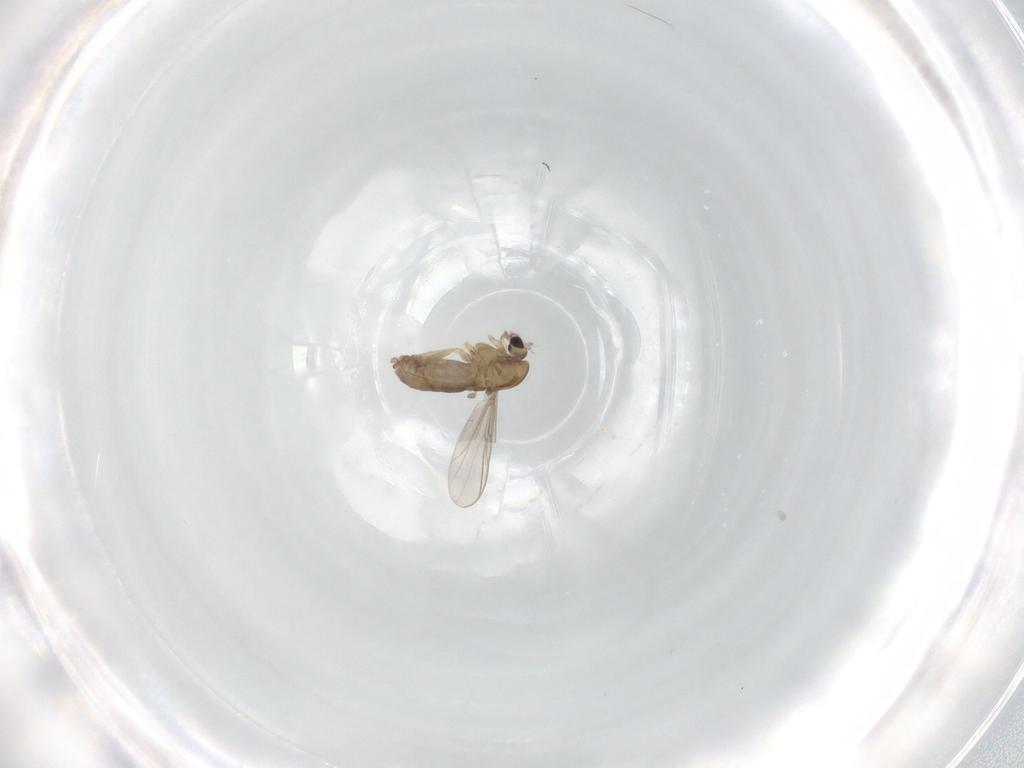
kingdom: Animalia
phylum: Arthropoda
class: Insecta
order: Diptera
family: Chironomidae
